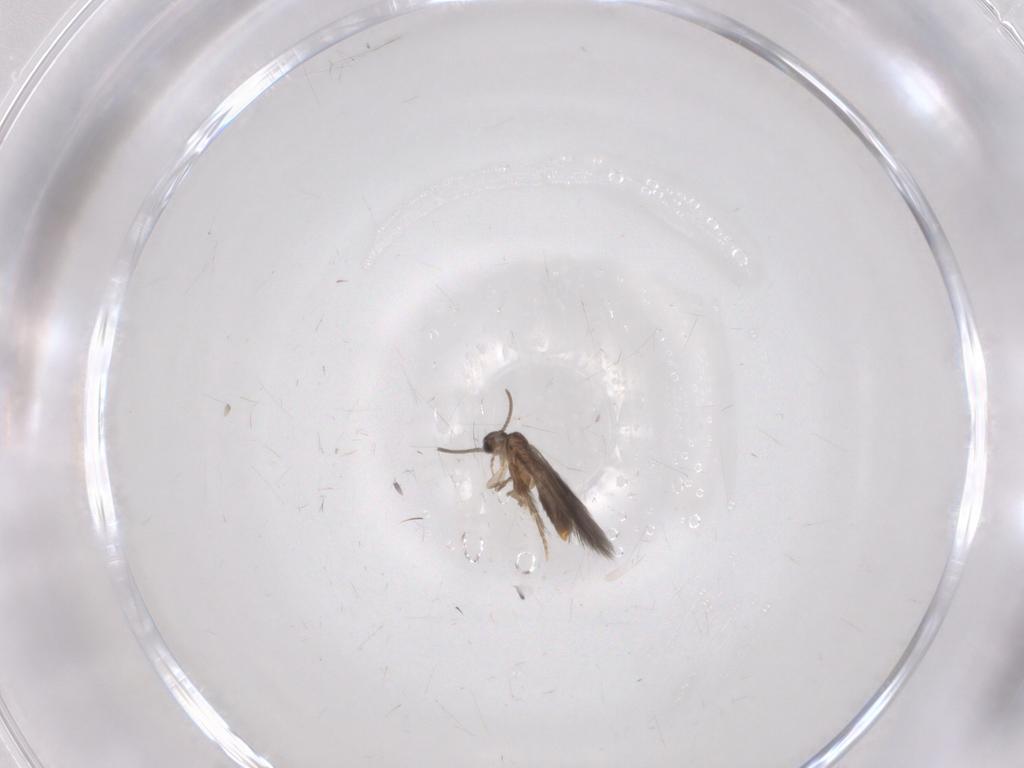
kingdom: Animalia
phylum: Arthropoda
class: Insecta
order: Trichoptera
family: Hydroptilidae
